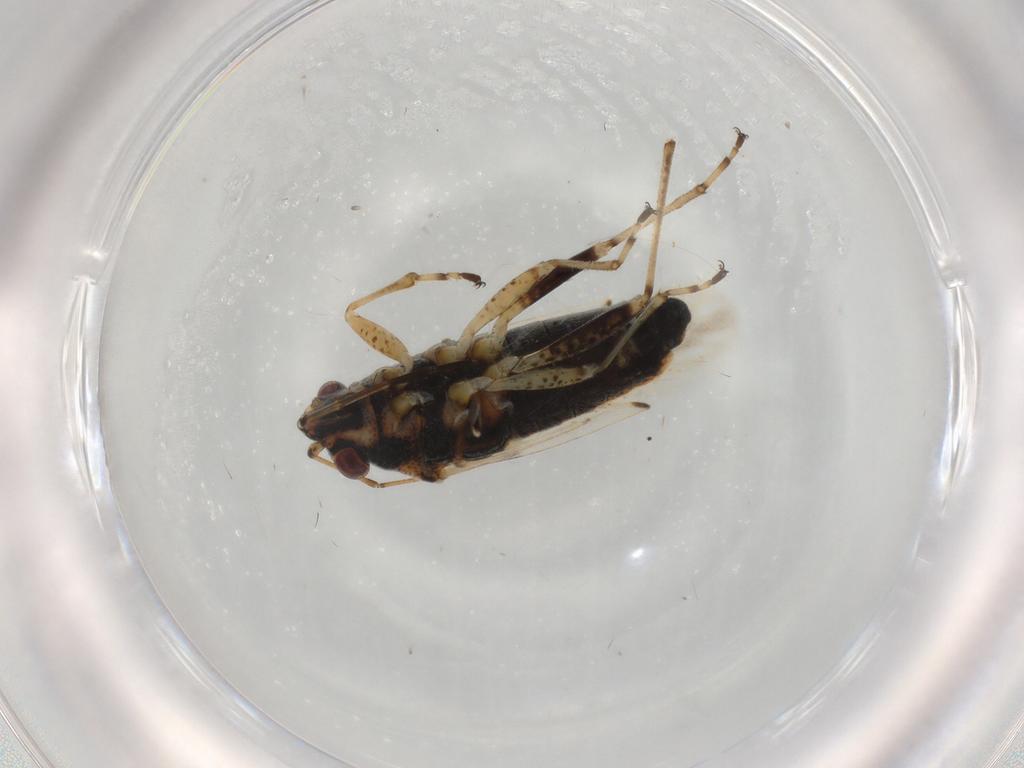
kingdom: Animalia
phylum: Arthropoda
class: Insecta
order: Hemiptera
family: Lygaeidae
